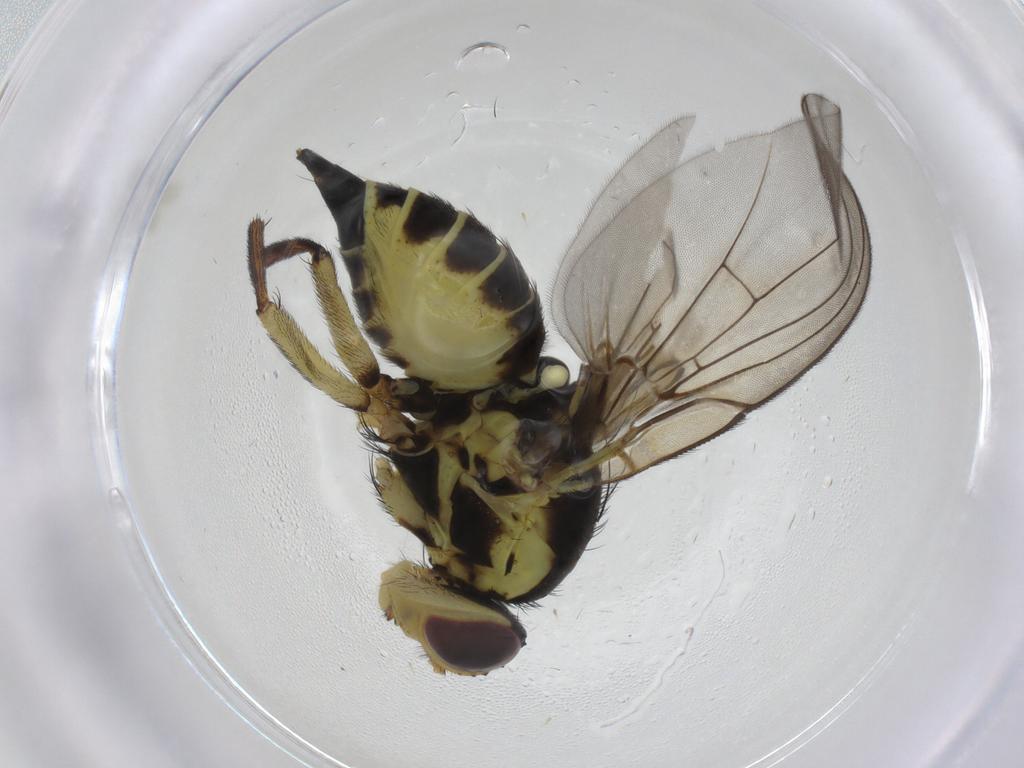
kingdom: Animalia
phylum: Arthropoda
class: Insecta
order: Diptera
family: Agromyzidae
